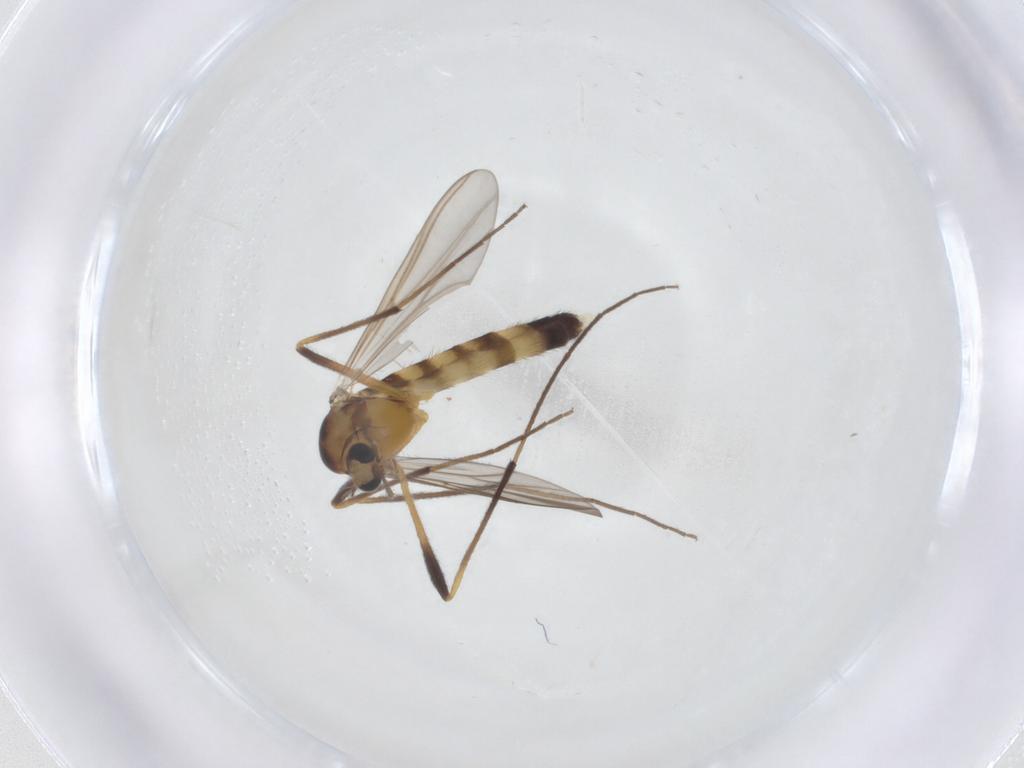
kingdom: Animalia
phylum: Arthropoda
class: Insecta
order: Diptera
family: Chironomidae
